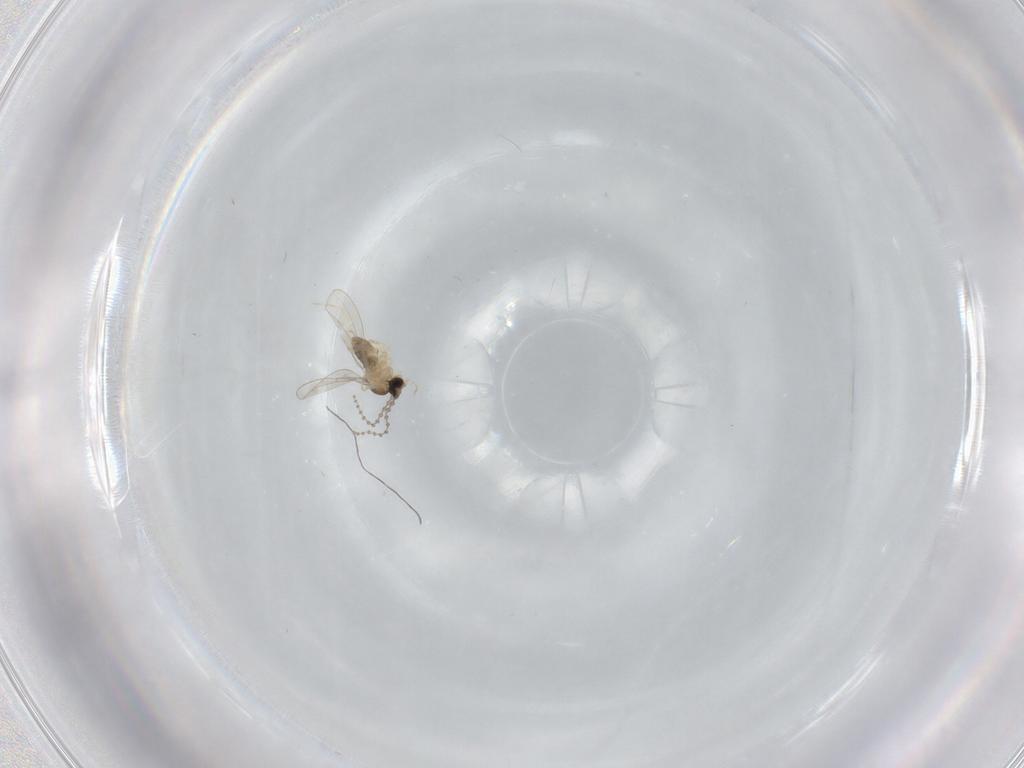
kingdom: Animalia
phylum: Arthropoda
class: Insecta
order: Diptera
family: Cecidomyiidae
